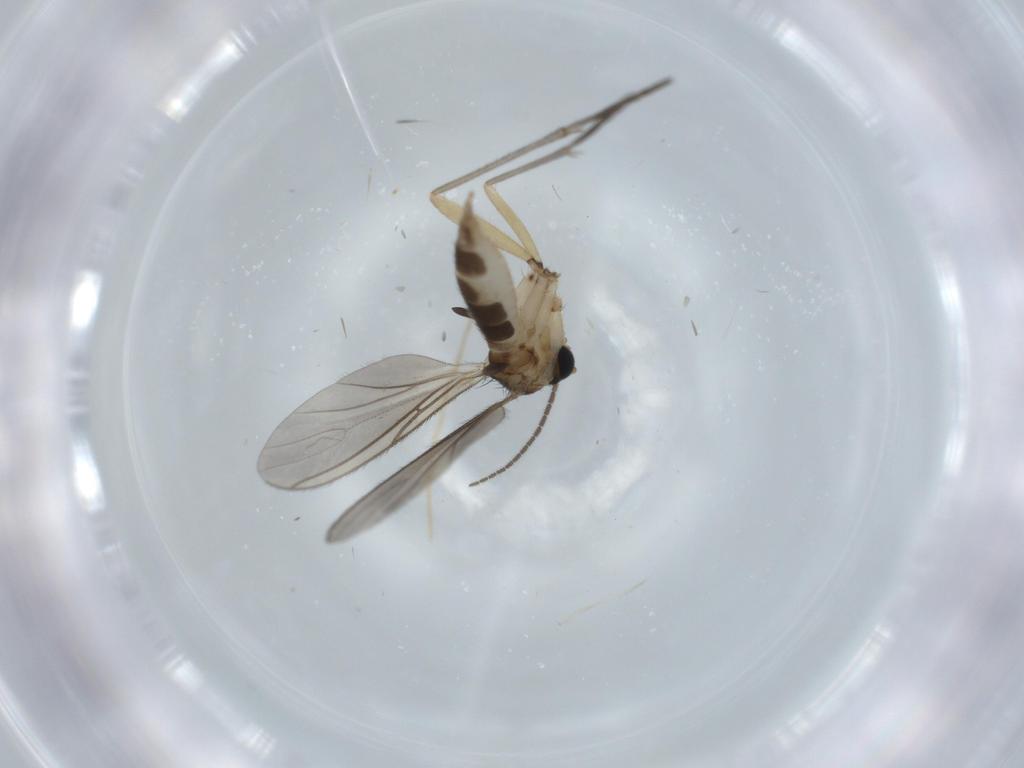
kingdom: Animalia
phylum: Arthropoda
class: Insecta
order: Diptera
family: Sciaridae
